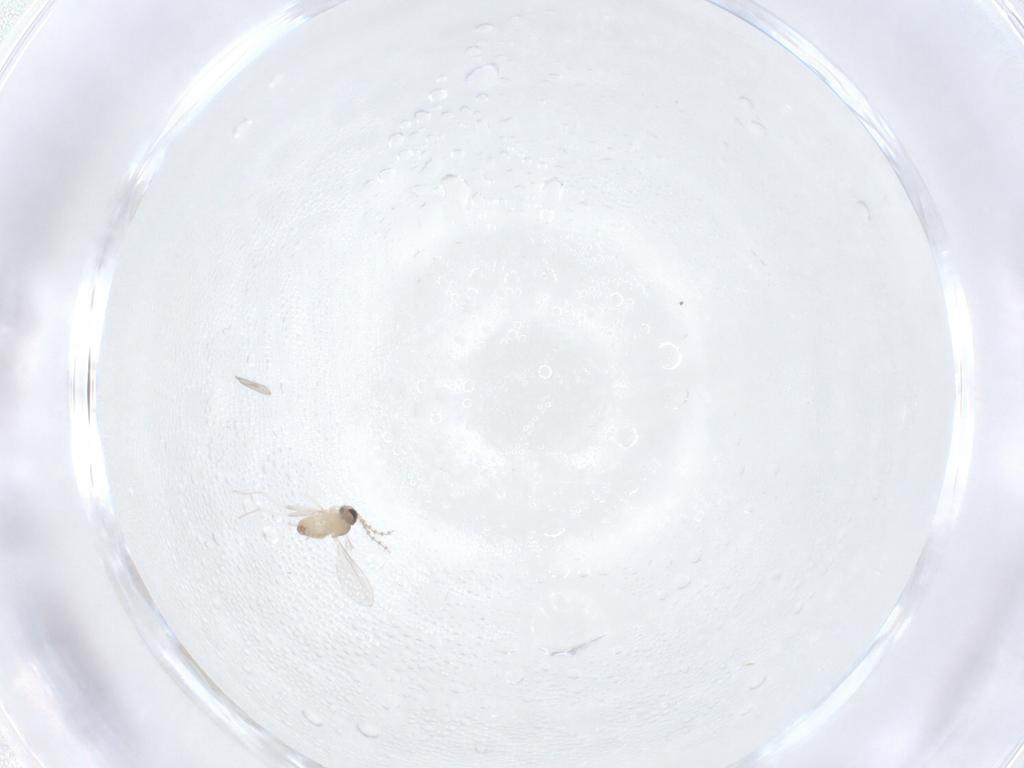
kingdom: Animalia
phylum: Arthropoda
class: Insecta
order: Diptera
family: Cecidomyiidae
